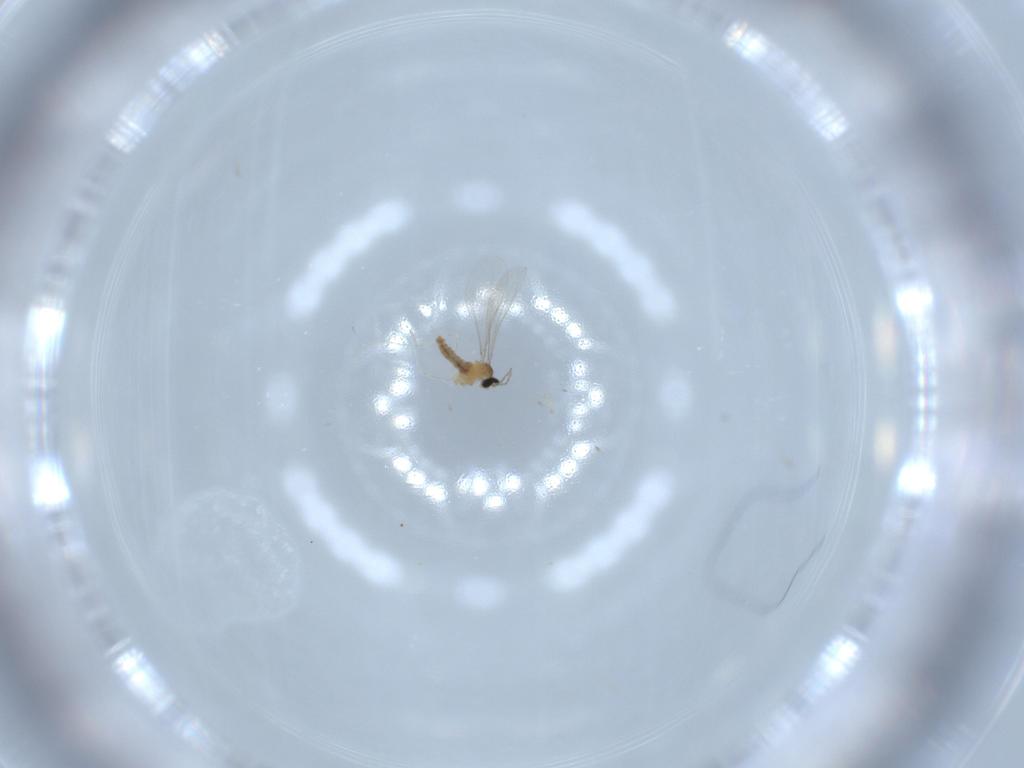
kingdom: Animalia
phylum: Arthropoda
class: Insecta
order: Diptera
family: Cecidomyiidae
